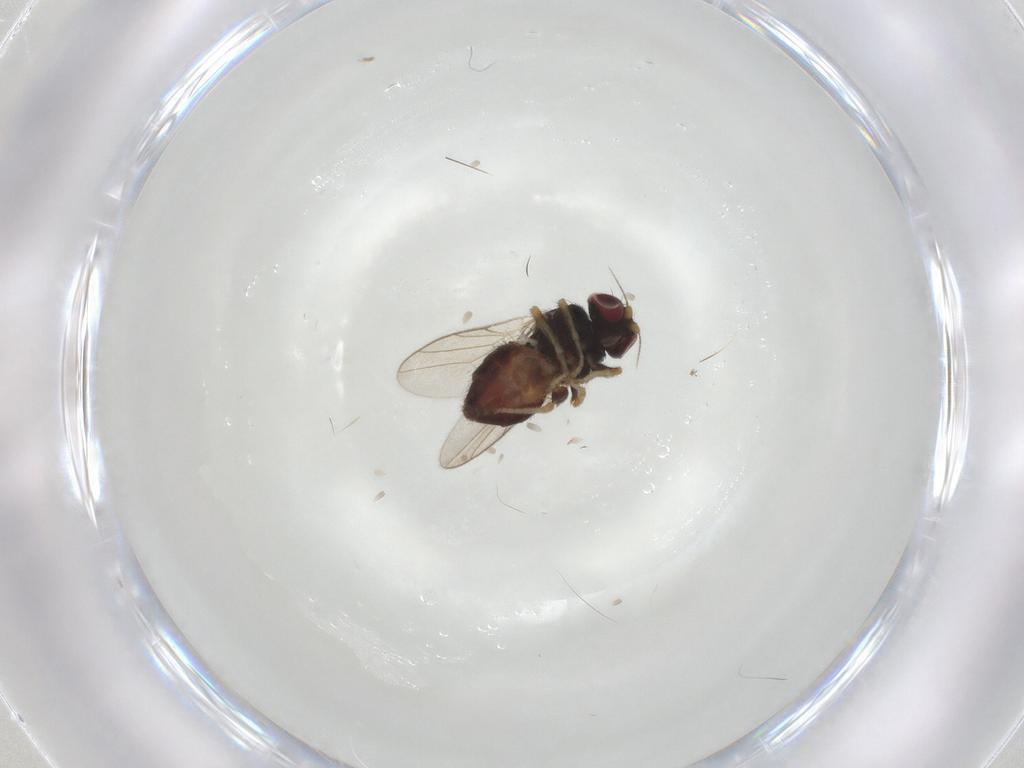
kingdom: Animalia
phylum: Arthropoda
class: Insecta
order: Diptera
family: Chloropidae
